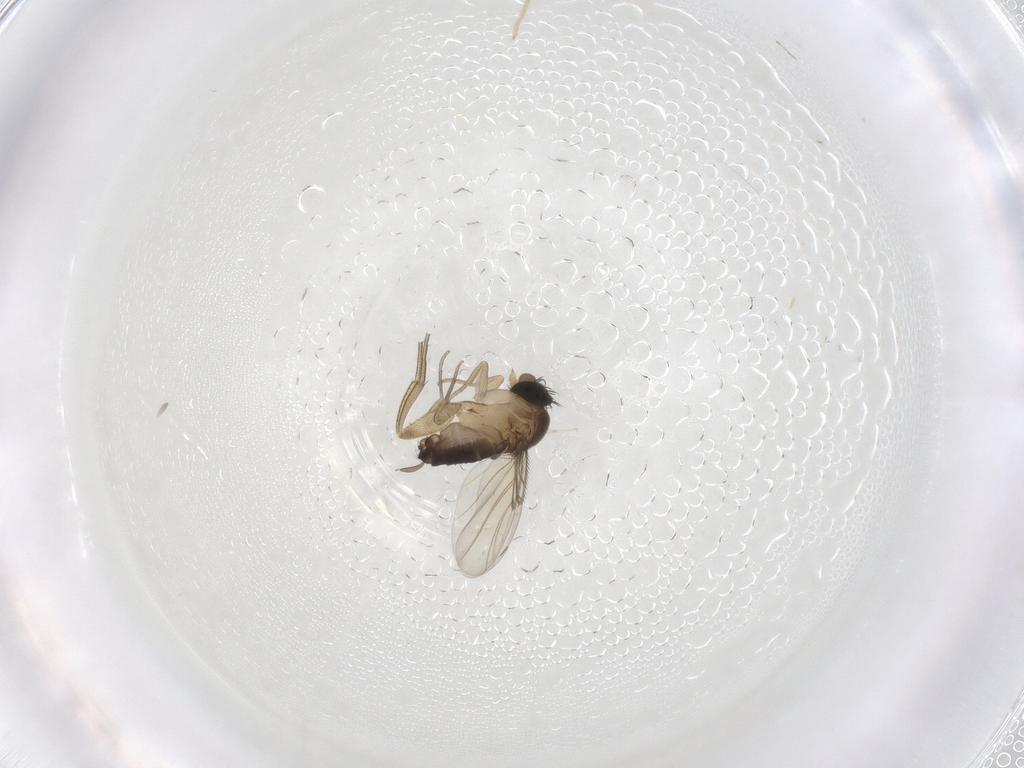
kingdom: Animalia
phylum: Arthropoda
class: Insecta
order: Diptera
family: Phoridae
